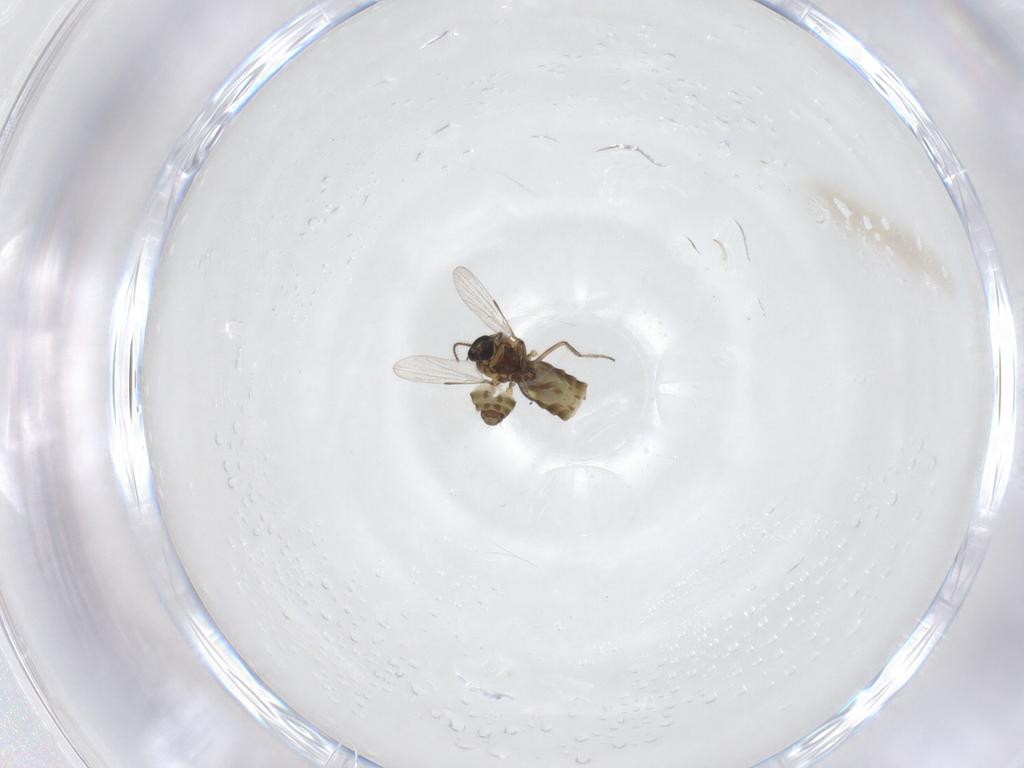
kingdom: Animalia
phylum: Arthropoda
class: Insecta
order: Diptera
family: Ceratopogonidae
